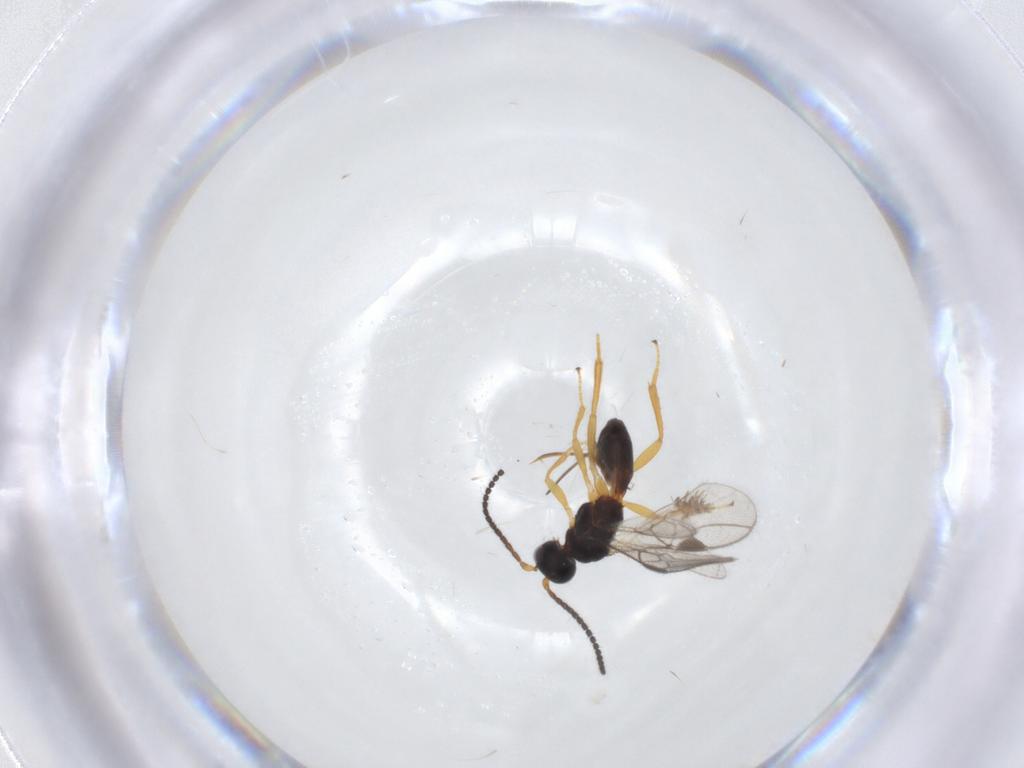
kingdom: Animalia
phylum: Arthropoda
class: Insecta
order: Hymenoptera
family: Braconidae
